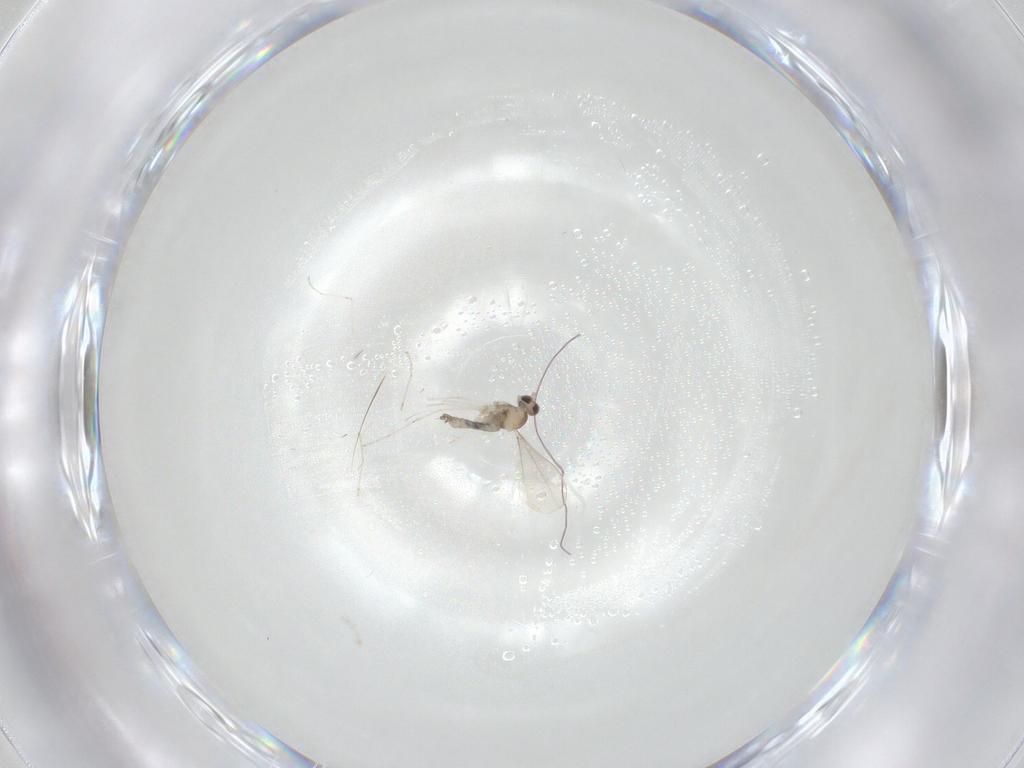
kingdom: Animalia
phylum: Arthropoda
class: Insecta
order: Diptera
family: Cecidomyiidae
